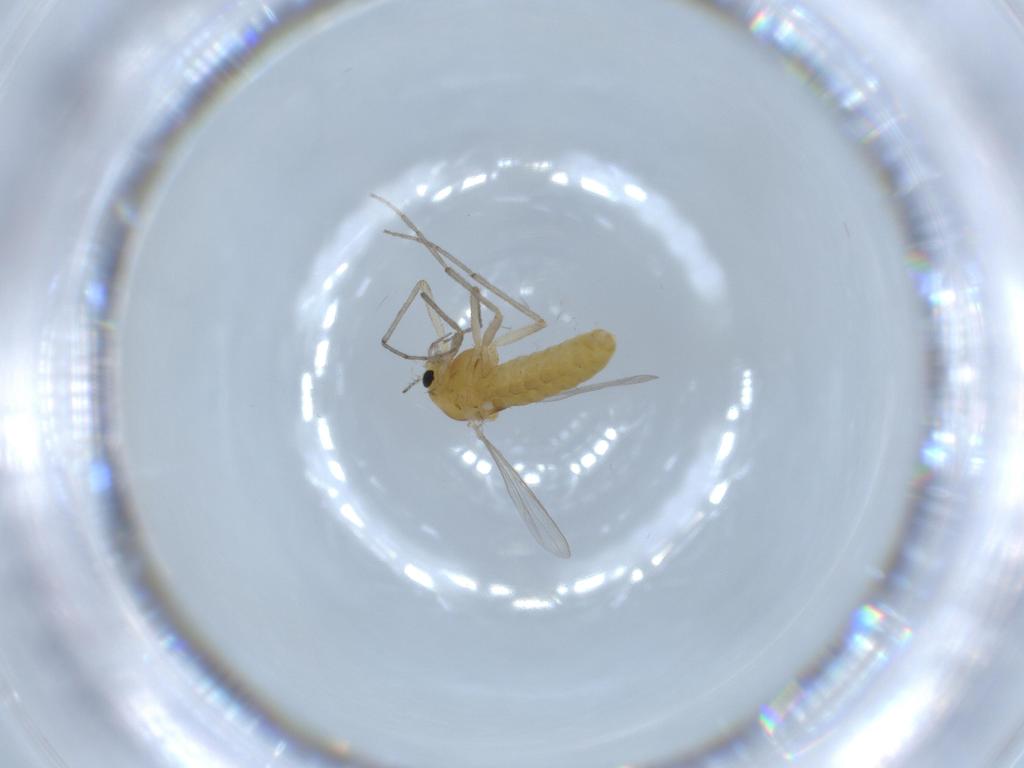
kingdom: Animalia
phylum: Arthropoda
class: Insecta
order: Diptera
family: Chironomidae
